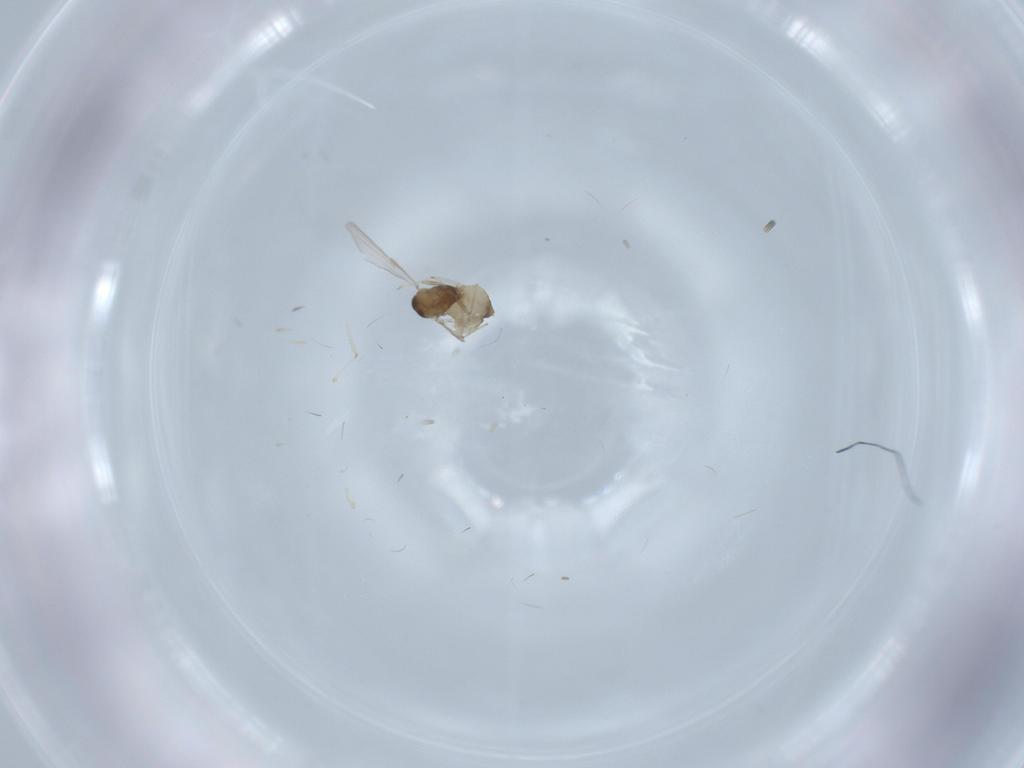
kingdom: Animalia
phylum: Arthropoda
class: Insecta
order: Diptera
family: Chironomidae
